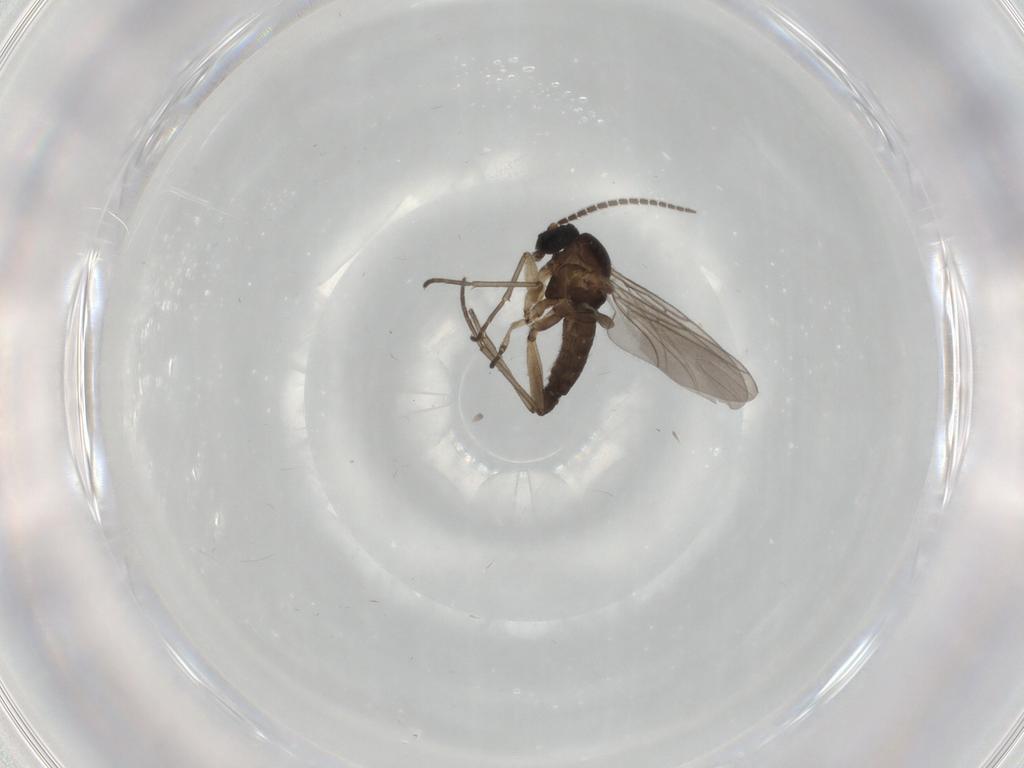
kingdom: Animalia
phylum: Arthropoda
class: Insecta
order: Diptera
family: Sciaridae
